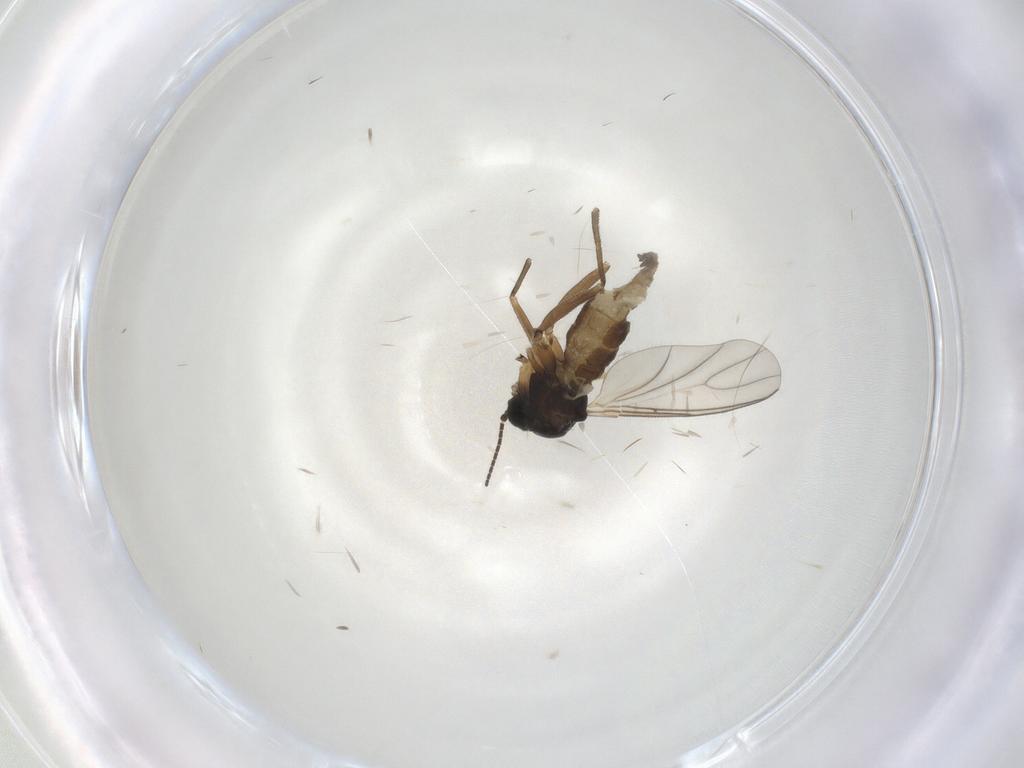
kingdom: Animalia
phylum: Arthropoda
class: Insecta
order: Diptera
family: Sciaridae
